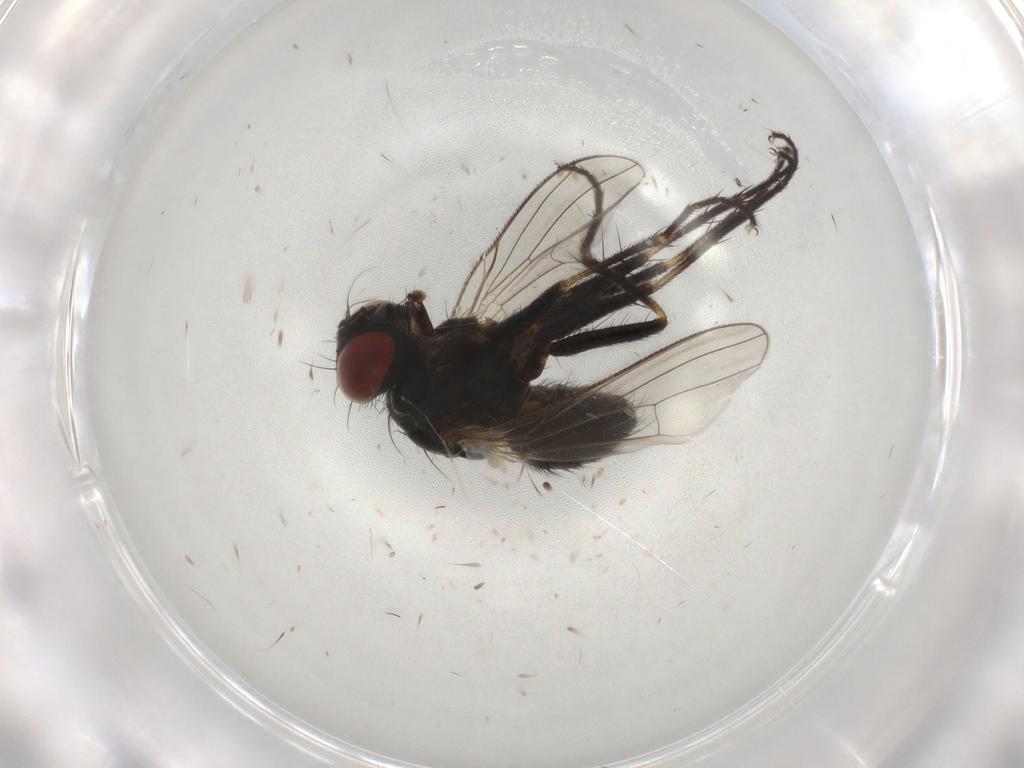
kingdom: Animalia
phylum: Arthropoda
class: Insecta
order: Diptera
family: Muscidae
